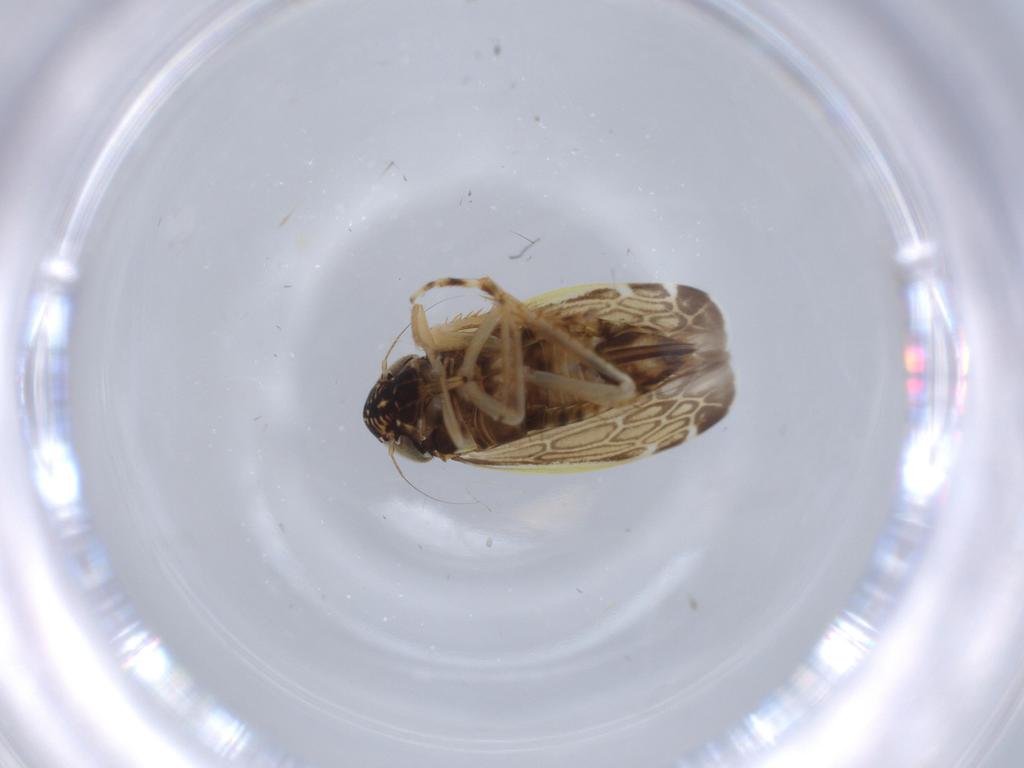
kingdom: Animalia
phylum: Arthropoda
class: Insecta
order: Hemiptera
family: Cicadellidae
